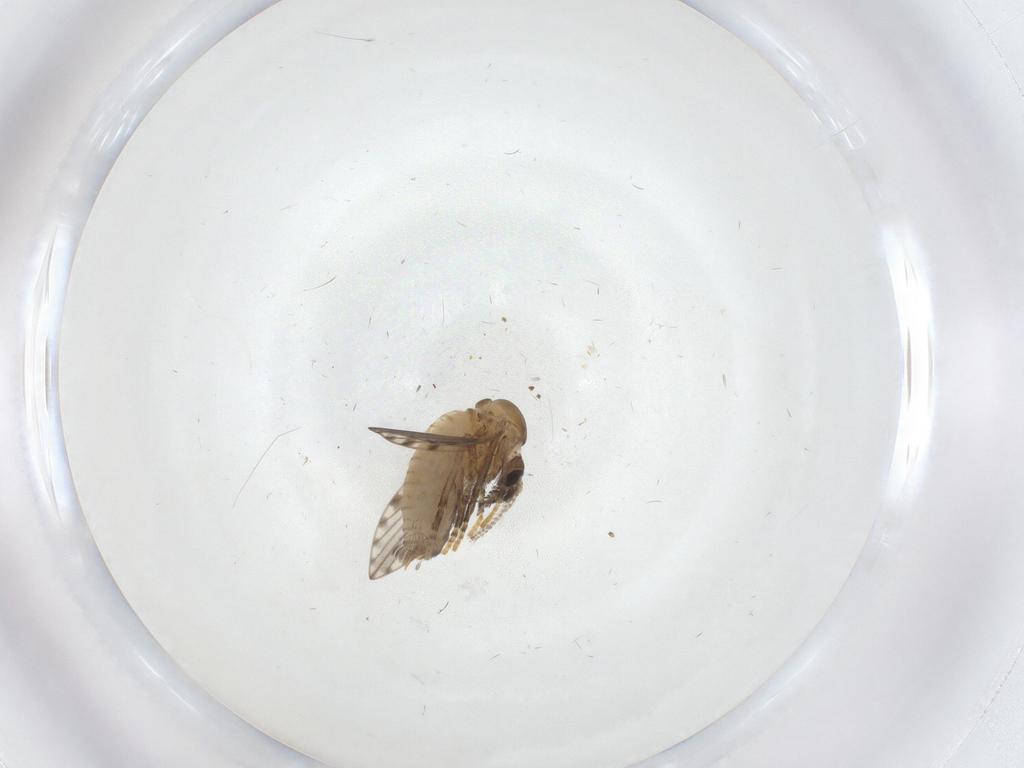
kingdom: Animalia
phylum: Arthropoda
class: Insecta
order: Diptera
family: Psychodidae
